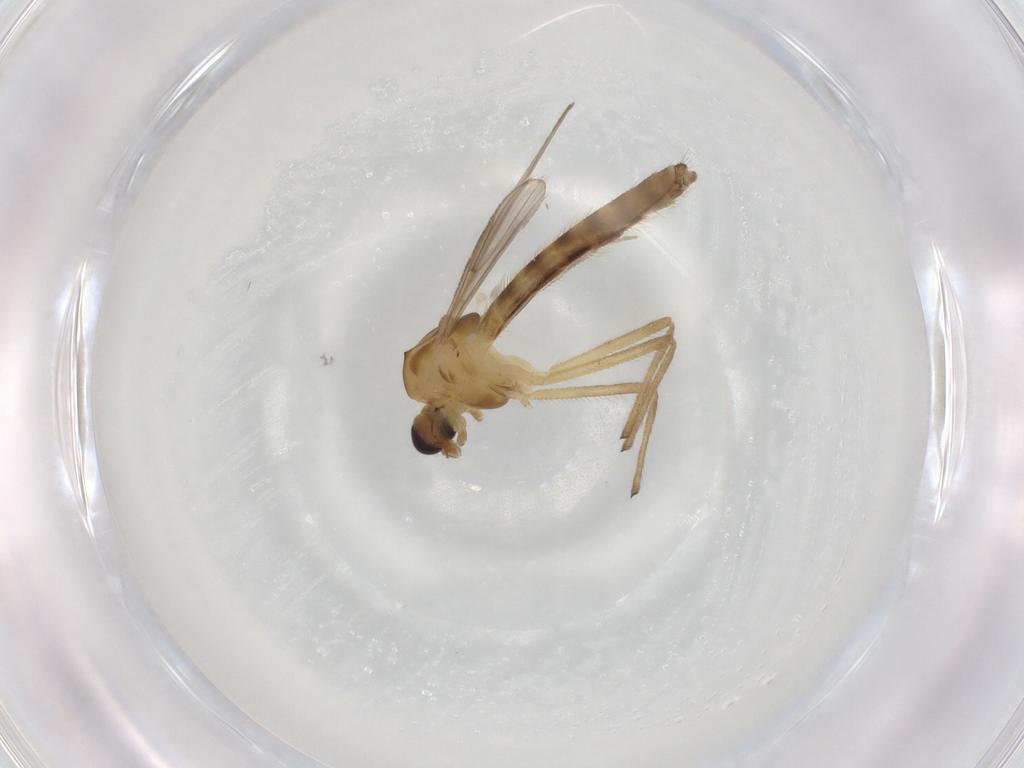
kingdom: Animalia
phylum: Arthropoda
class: Insecta
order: Diptera
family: Chironomidae
